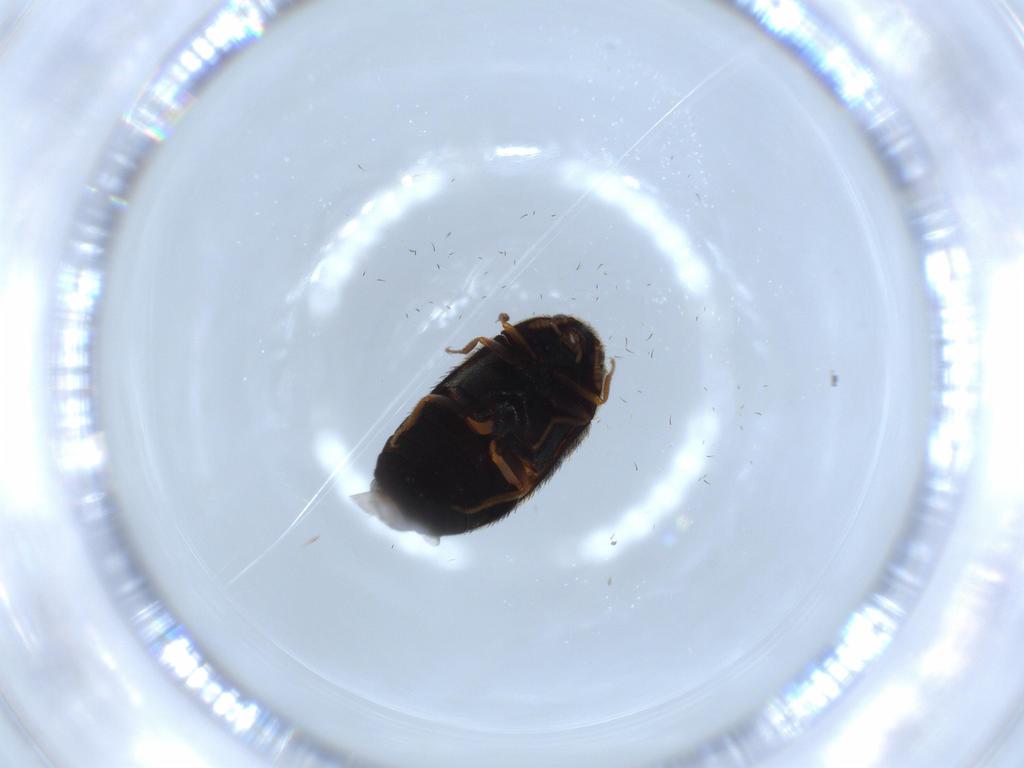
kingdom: Animalia
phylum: Arthropoda
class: Insecta
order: Coleoptera
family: Dermestidae
